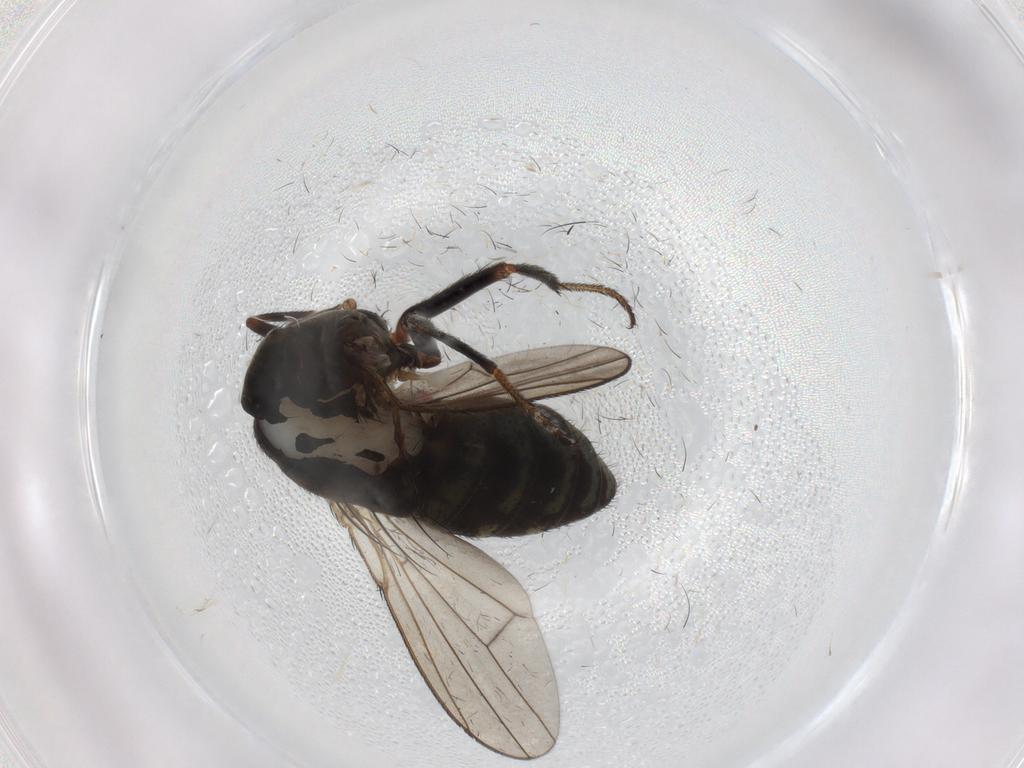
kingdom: Animalia
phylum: Arthropoda
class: Insecta
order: Diptera
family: Ephydridae
